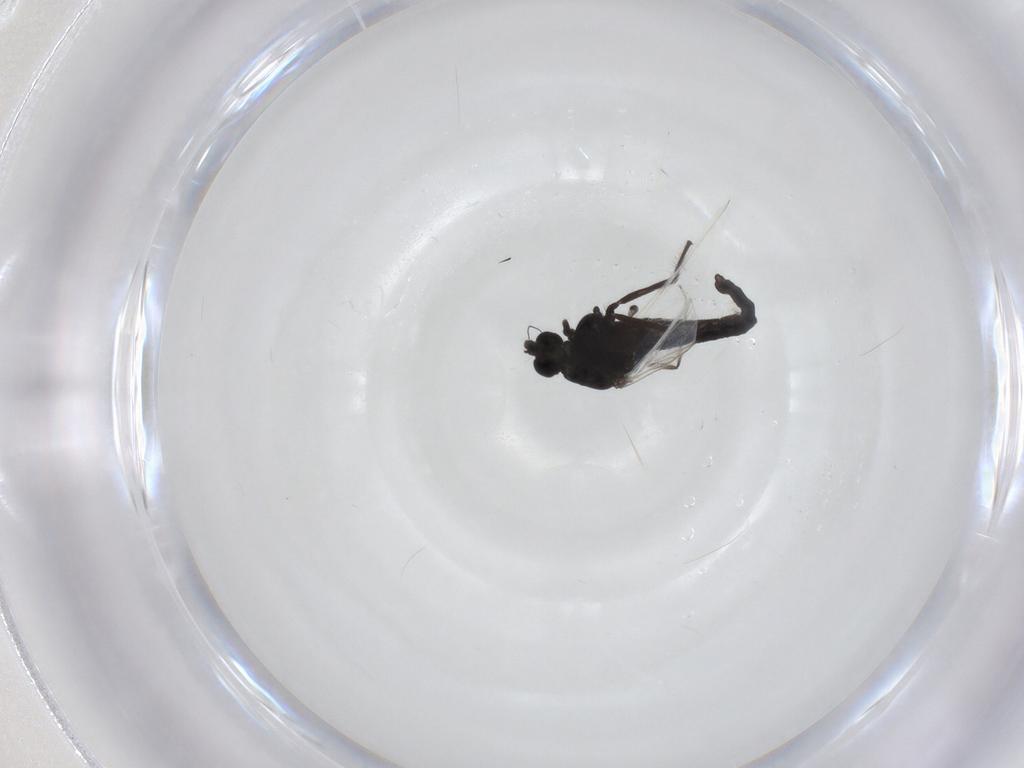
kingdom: Animalia
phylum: Arthropoda
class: Insecta
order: Diptera
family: Chironomidae
